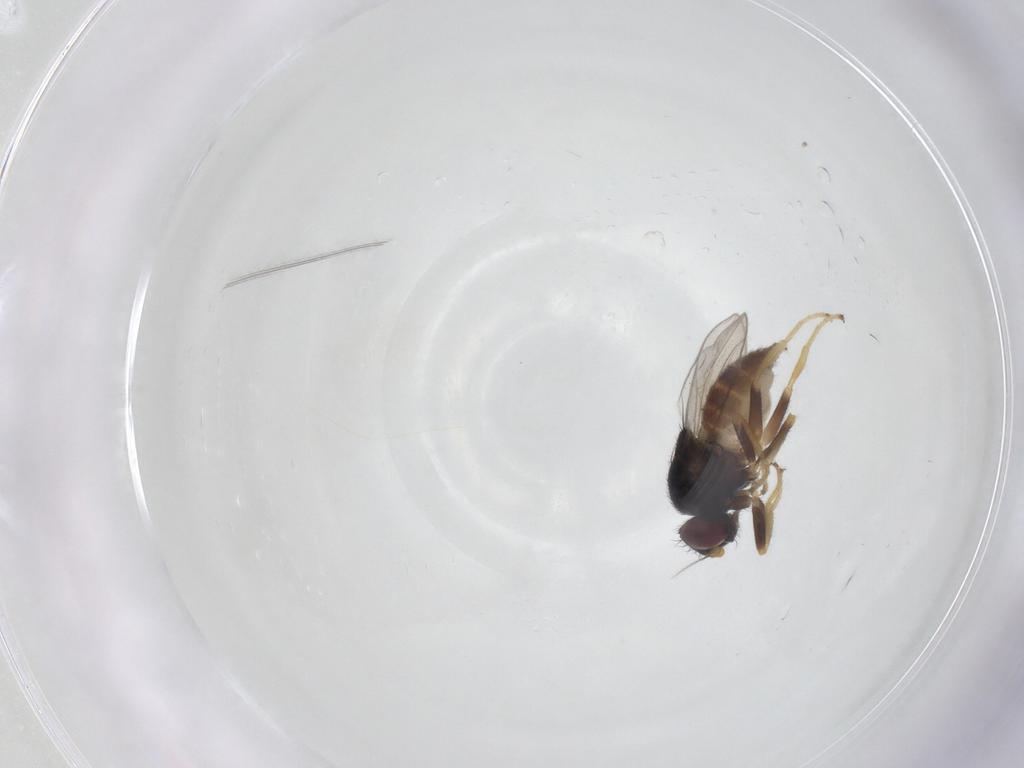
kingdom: Animalia
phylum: Arthropoda
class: Insecta
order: Diptera
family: Chloropidae
